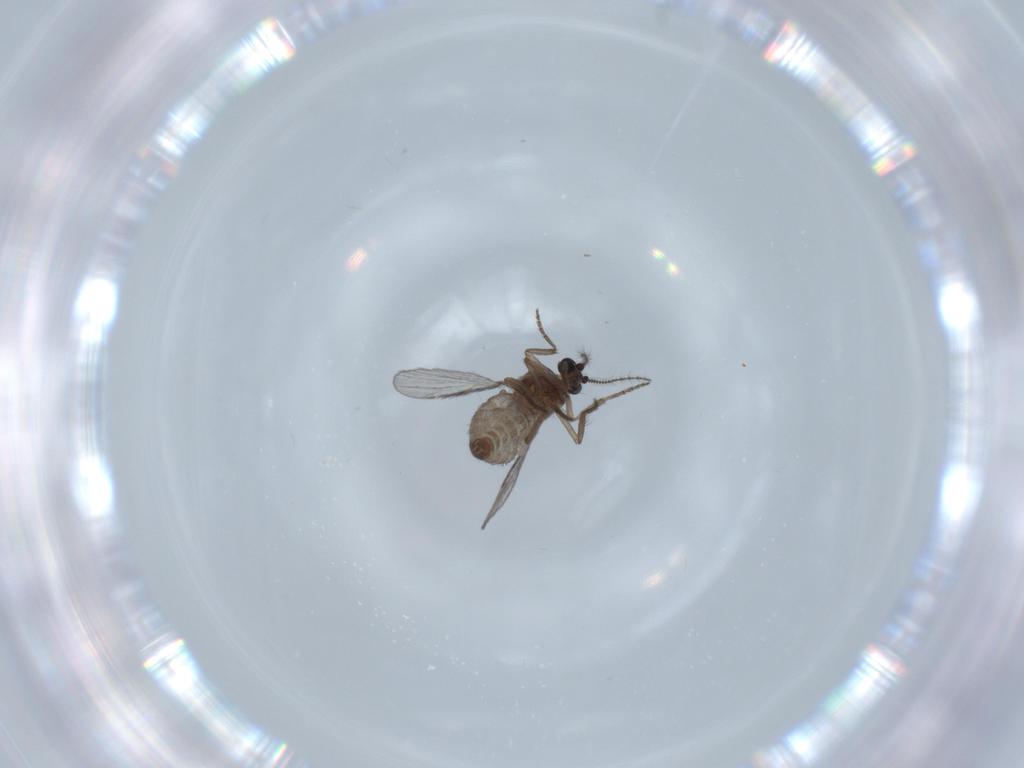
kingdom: Animalia
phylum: Arthropoda
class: Insecta
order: Diptera
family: Chironomidae
